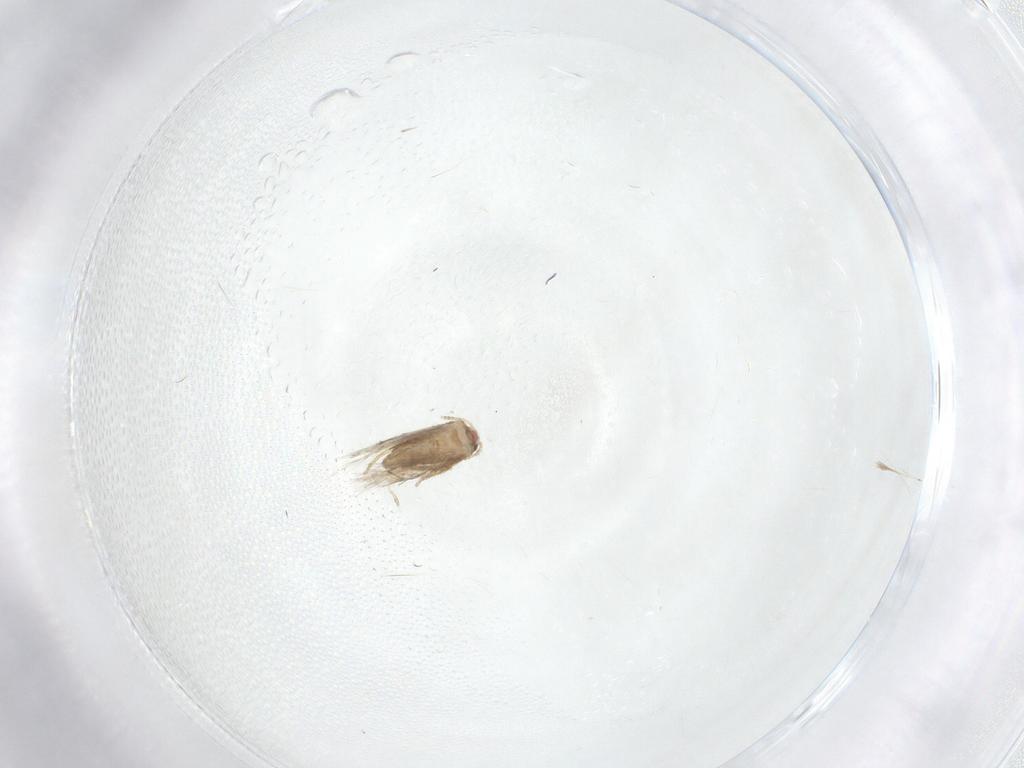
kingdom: Animalia
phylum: Arthropoda
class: Insecta
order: Lepidoptera
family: Nepticulidae
